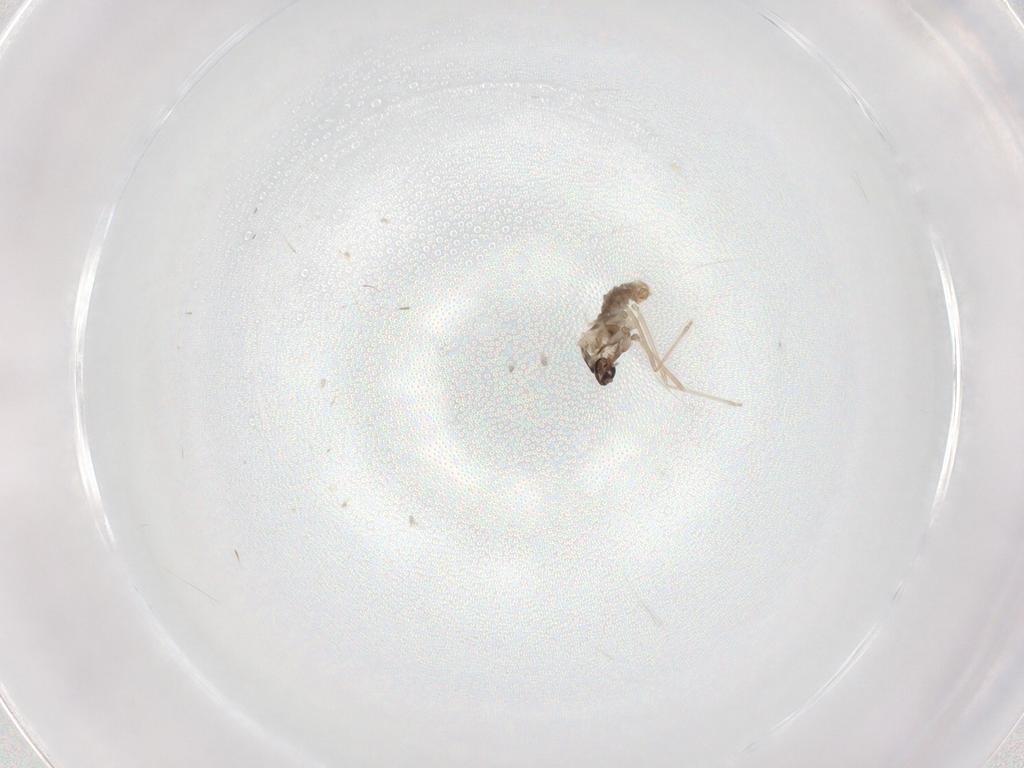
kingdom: Animalia
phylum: Arthropoda
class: Insecta
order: Diptera
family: Cecidomyiidae
